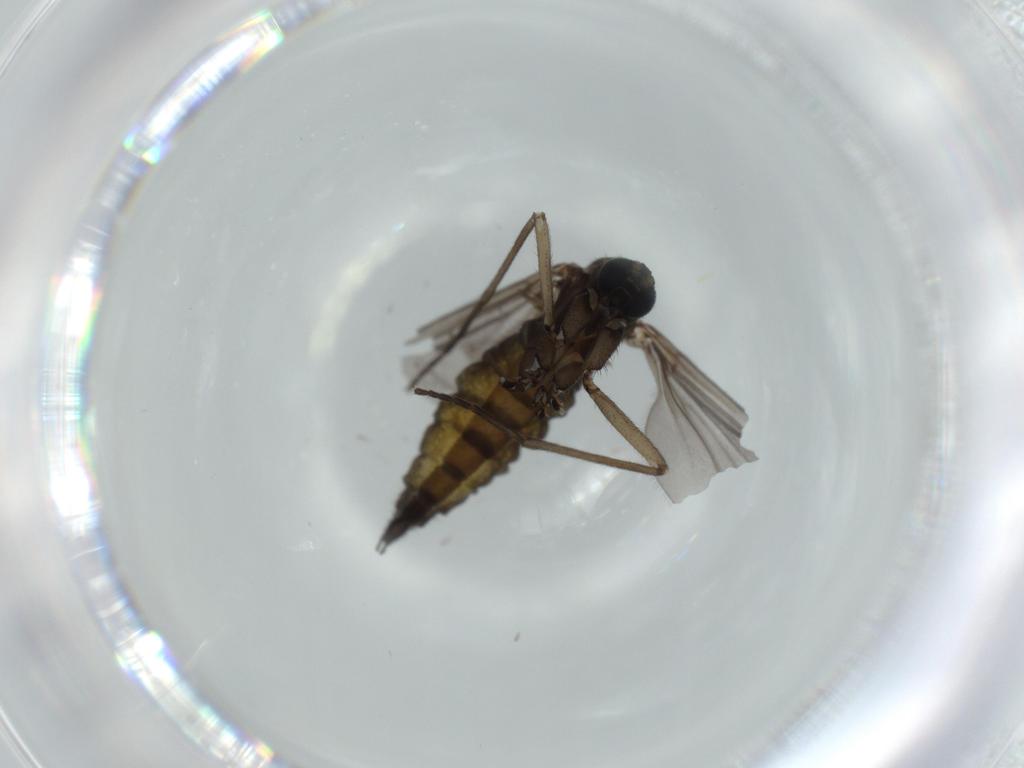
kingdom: Animalia
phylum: Arthropoda
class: Insecta
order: Diptera
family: Sciaridae
